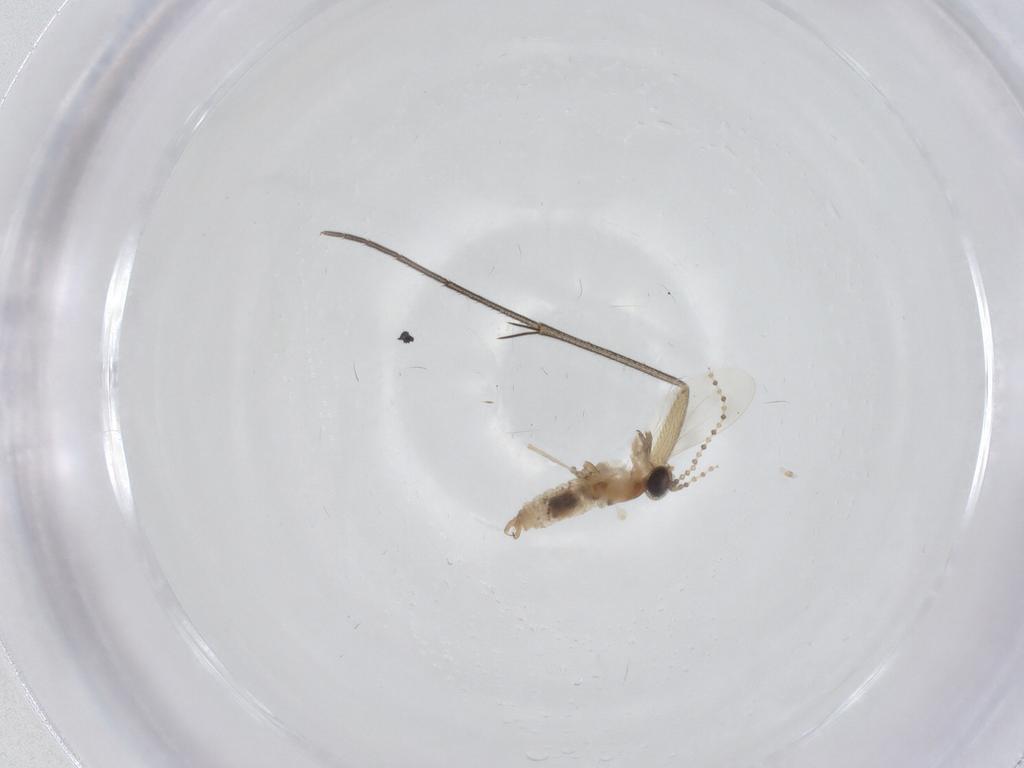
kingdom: Animalia
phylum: Arthropoda
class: Insecta
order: Diptera
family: Cecidomyiidae
